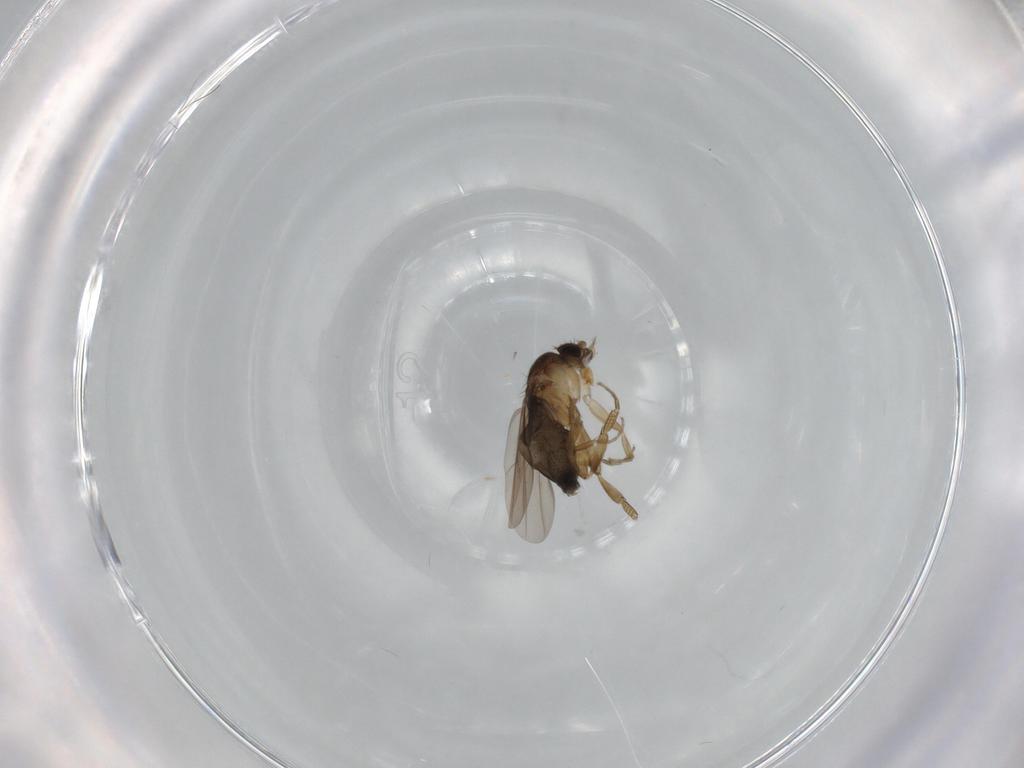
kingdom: Animalia
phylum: Arthropoda
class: Insecta
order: Diptera
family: Phoridae
